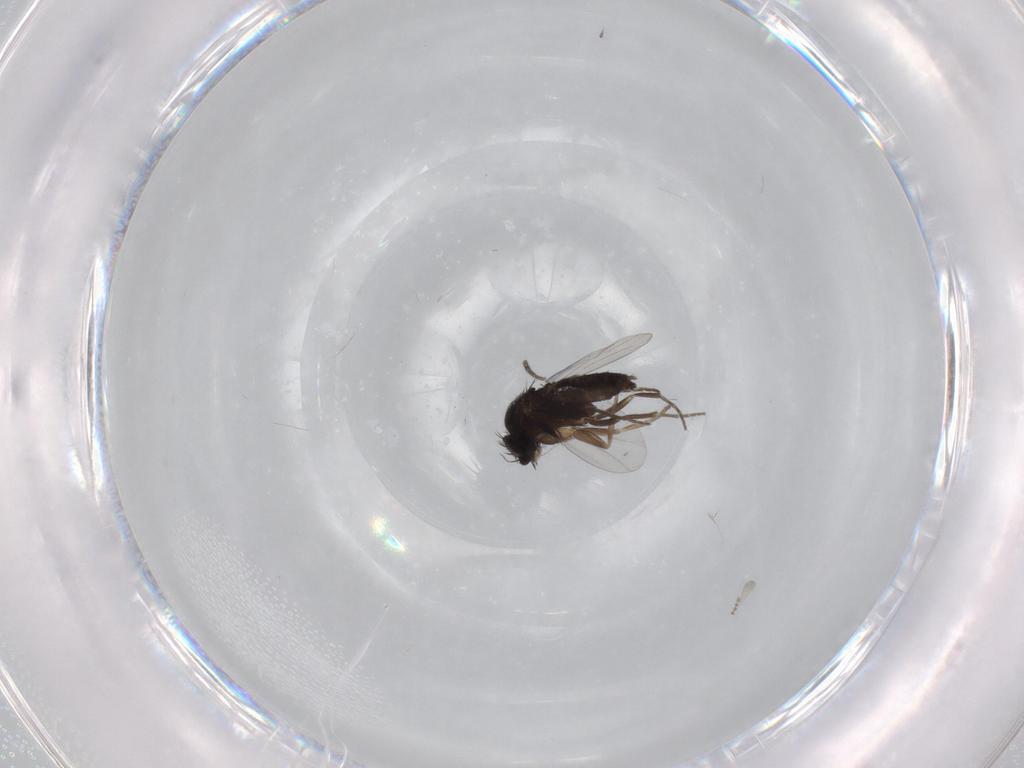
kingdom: Animalia
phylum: Arthropoda
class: Insecta
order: Diptera
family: Phoridae
